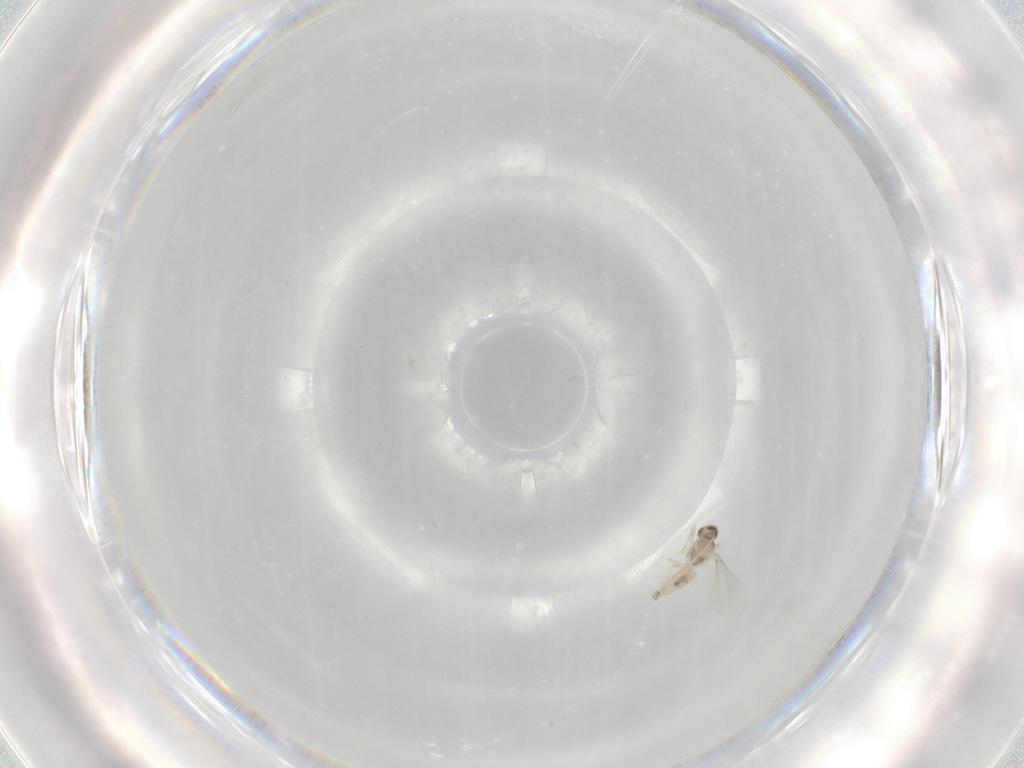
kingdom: Animalia
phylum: Arthropoda
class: Insecta
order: Diptera
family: Cecidomyiidae
